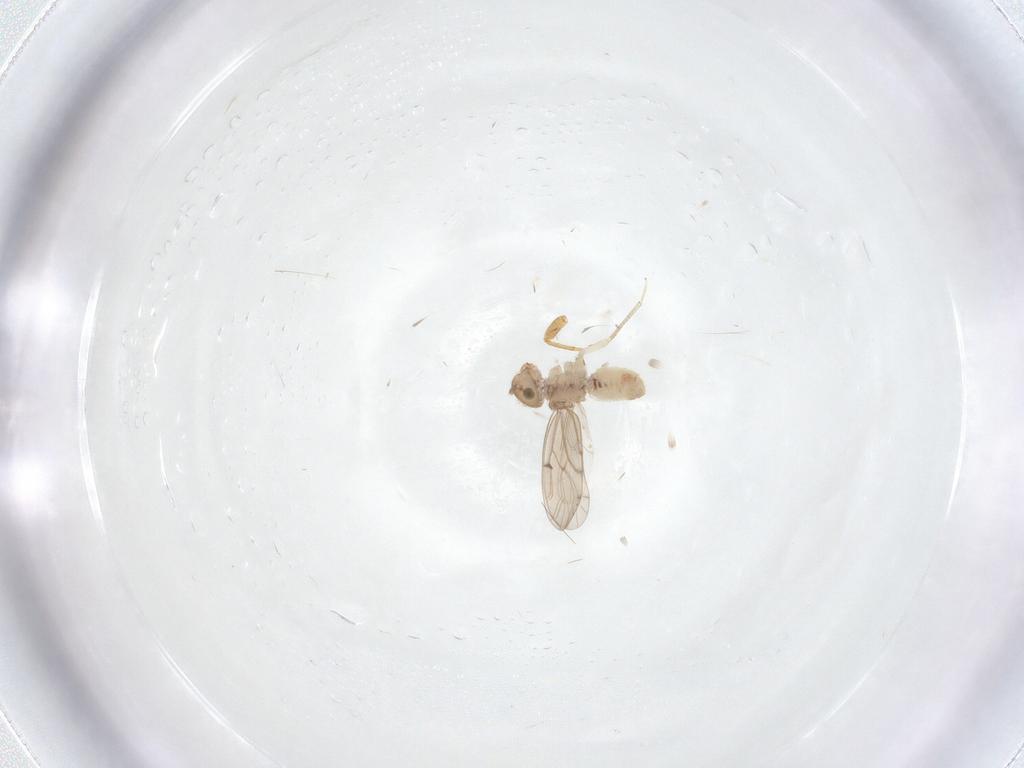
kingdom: Animalia
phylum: Arthropoda
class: Insecta
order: Psocodea
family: Ectopsocidae
